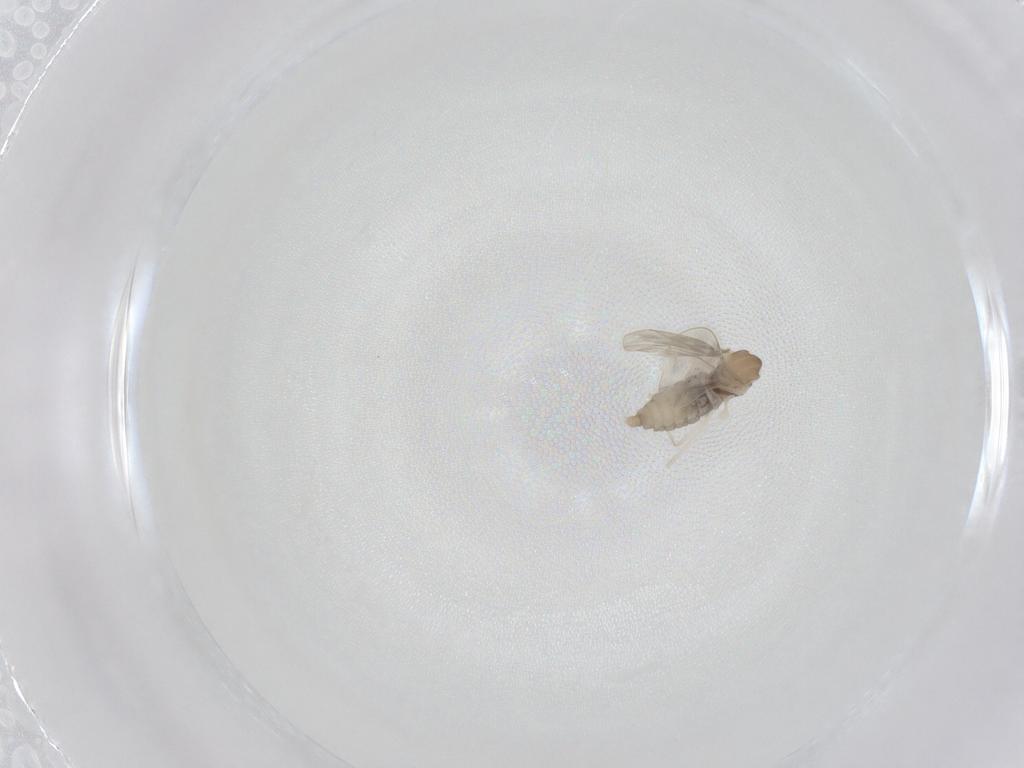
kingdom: Animalia
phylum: Arthropoda
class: Insecta
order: Diptera
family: Cecidomyiidae
